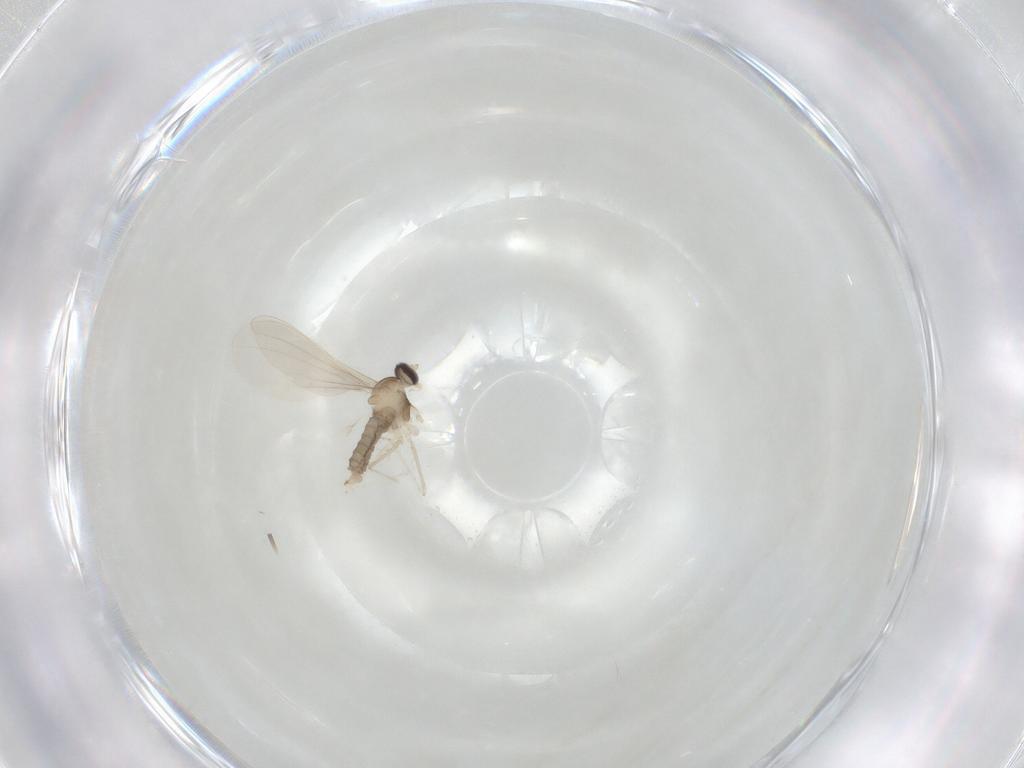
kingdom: Animalia
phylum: Arthropoda
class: Insecta
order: Diptera
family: Cecidomyiidae
